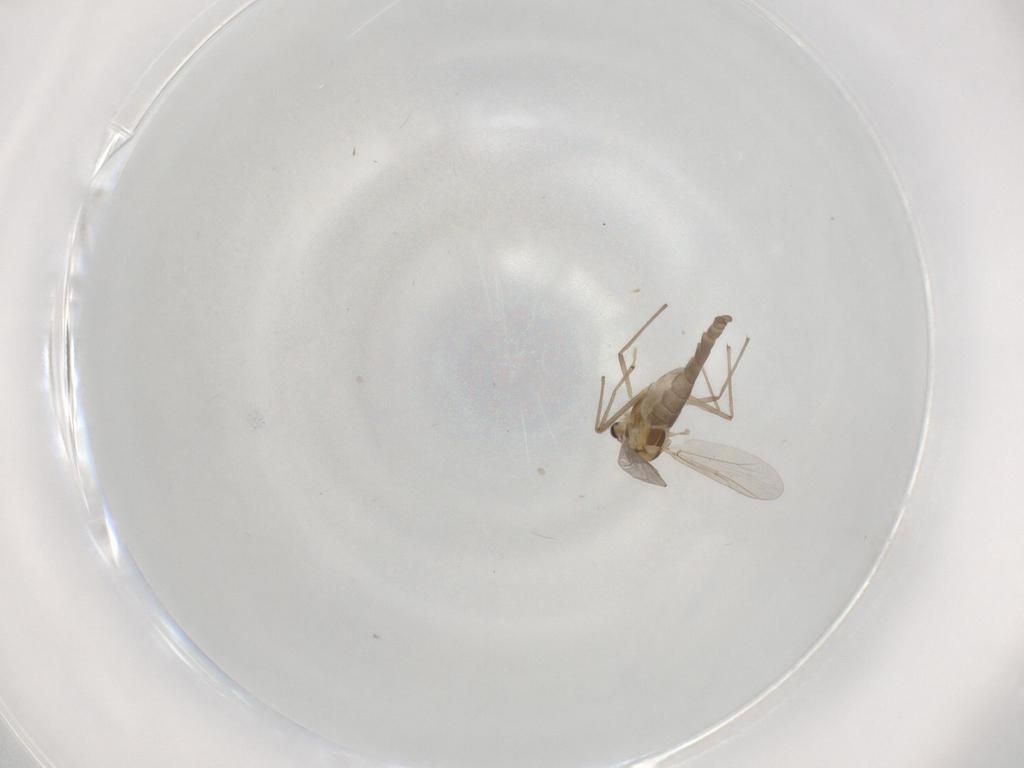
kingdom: Animalia
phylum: Arthropoda
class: Insecta
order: Diptera
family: Chironomidae
